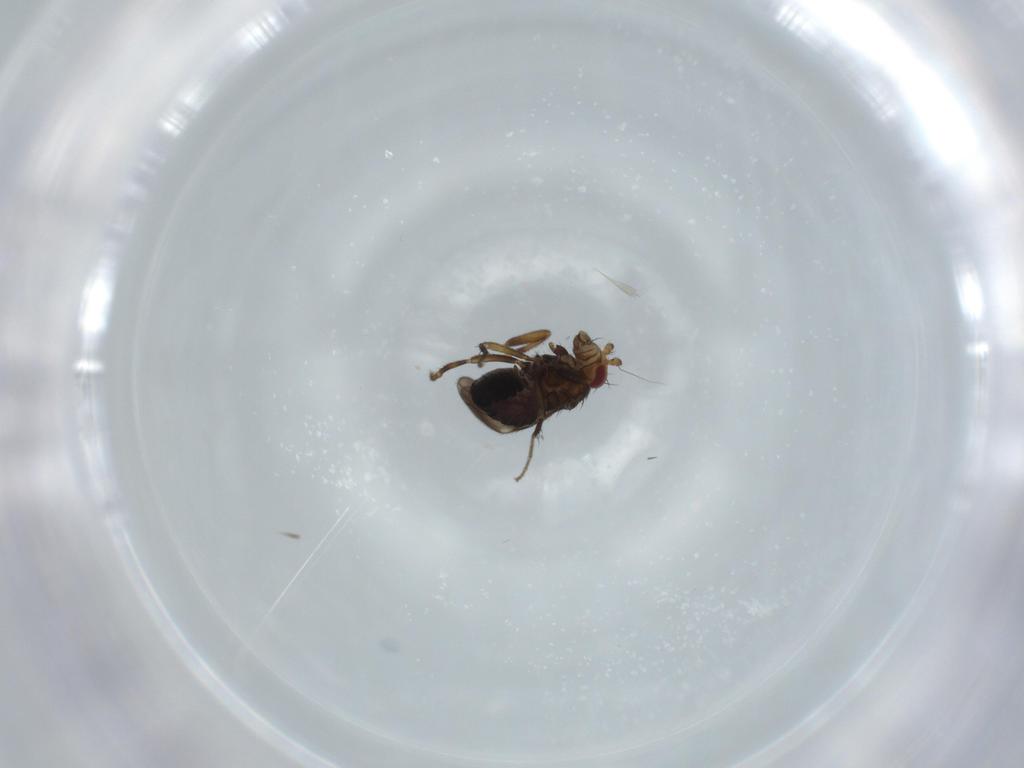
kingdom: Animalia
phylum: Arthropoda
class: Insecta
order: Diptera
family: Sphaeroceridae
